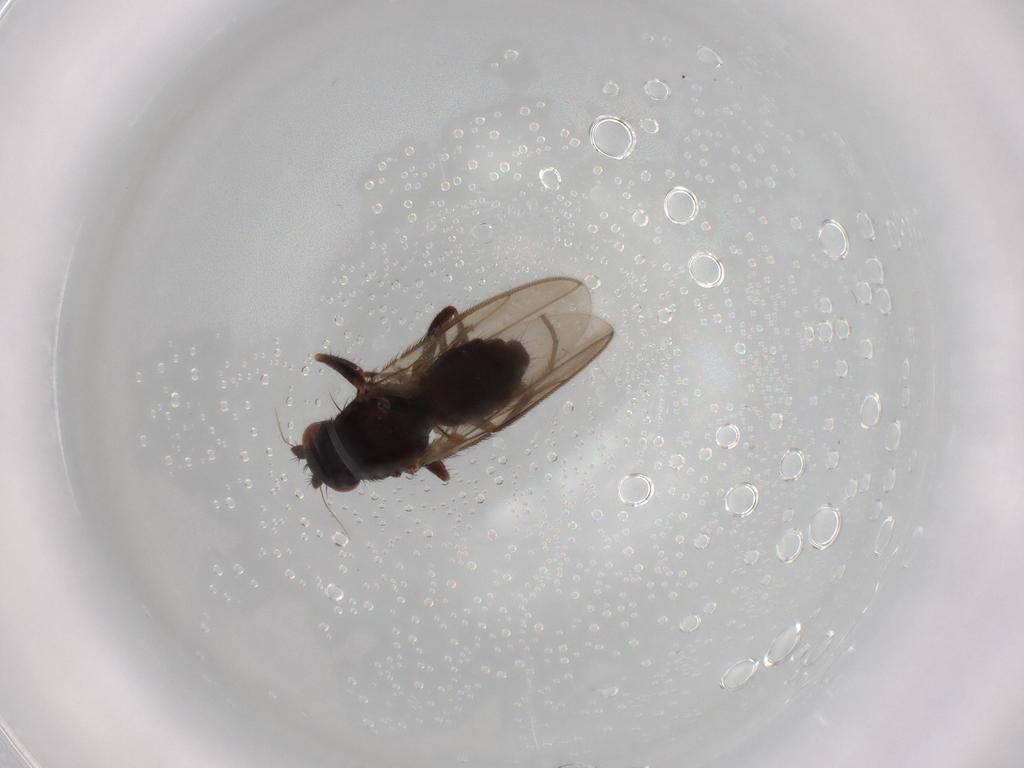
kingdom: Animalia
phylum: Arthropoda
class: Insecta
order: Diptera
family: Sphaeroceridae
